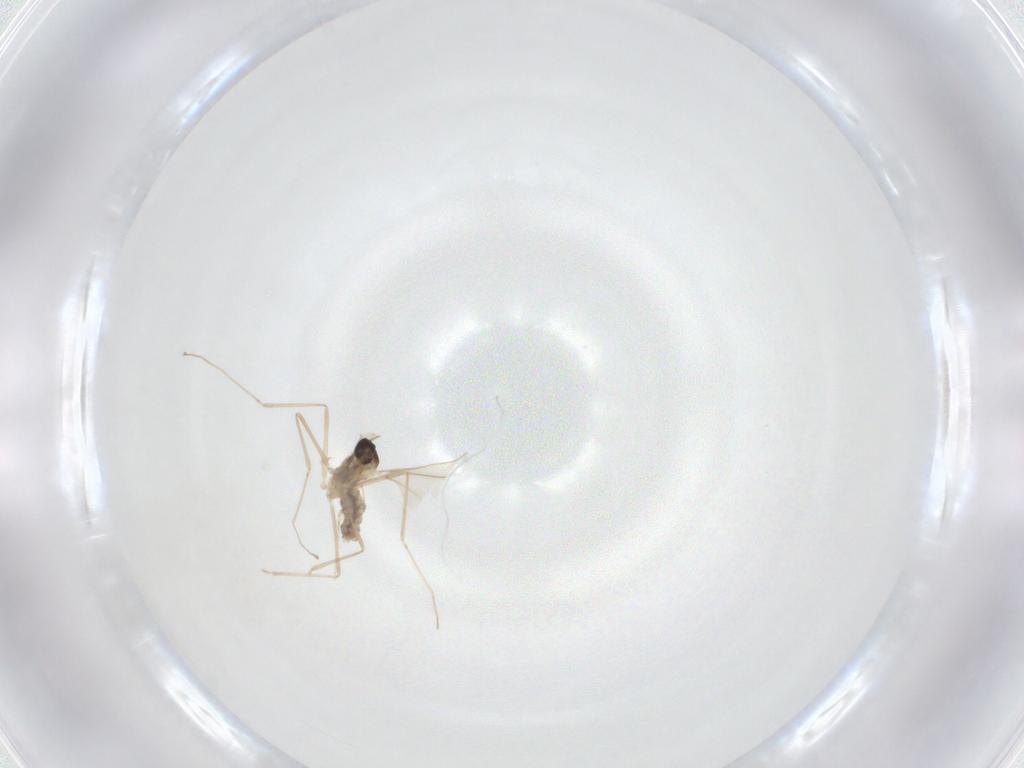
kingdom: Animalia
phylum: Arthropoda
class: Insecta
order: Diptera
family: Cecidomyiidae
